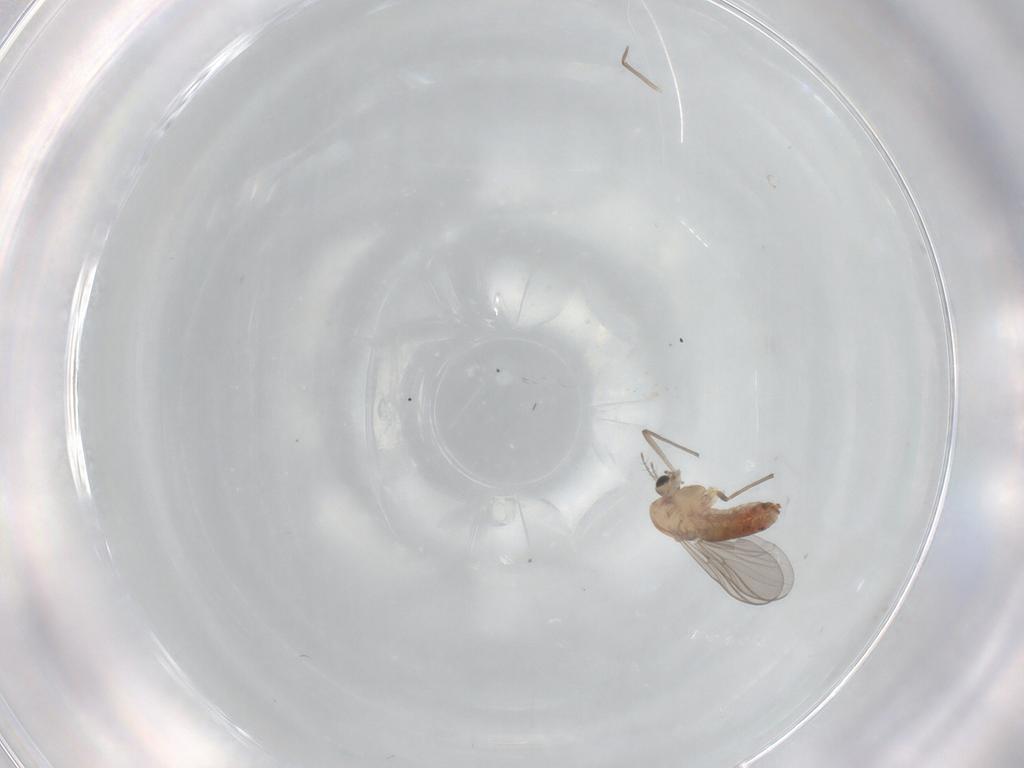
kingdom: Animalia
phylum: Arthropoda
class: Insecta
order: Diptera
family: Chironomidae
